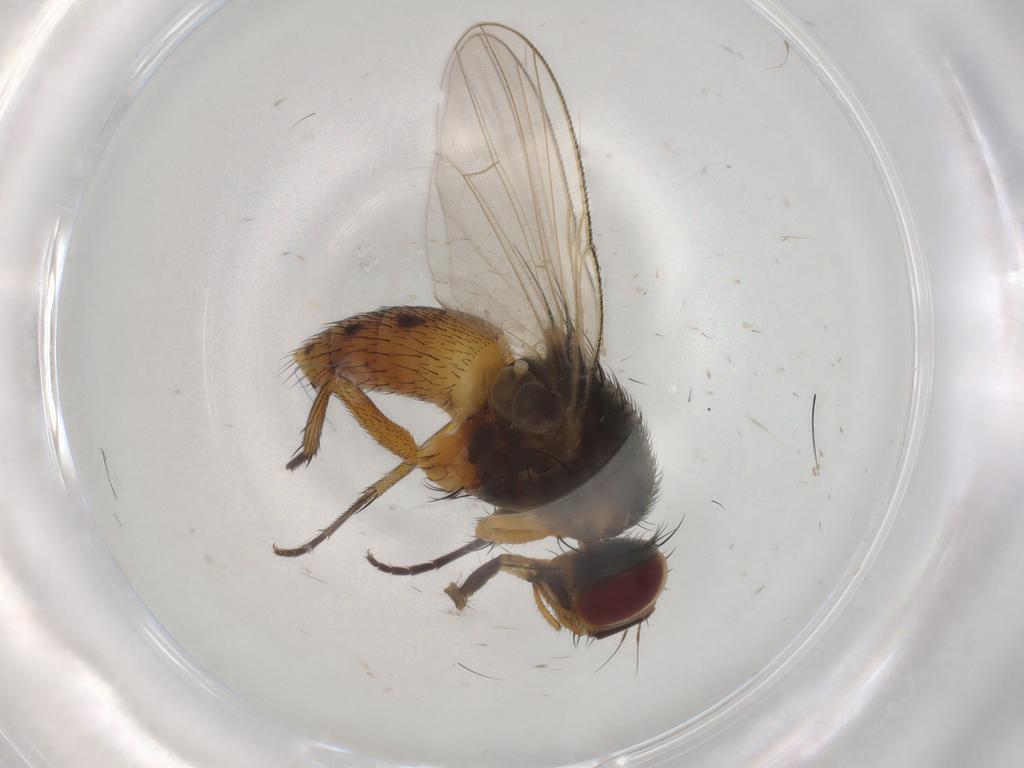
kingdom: Animalia
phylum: Arthropoda
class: Insecta
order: Diptera
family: Muscidae
